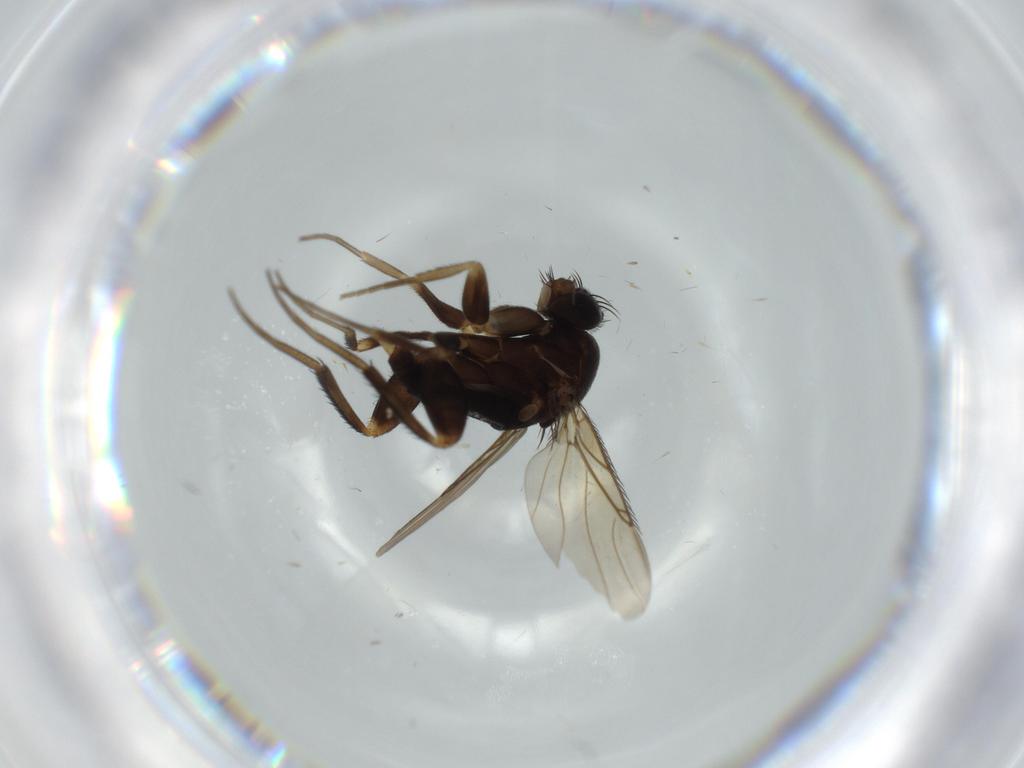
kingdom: Animalia
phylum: Arthropoda
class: Insecta
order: Diptera
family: Phoridae
